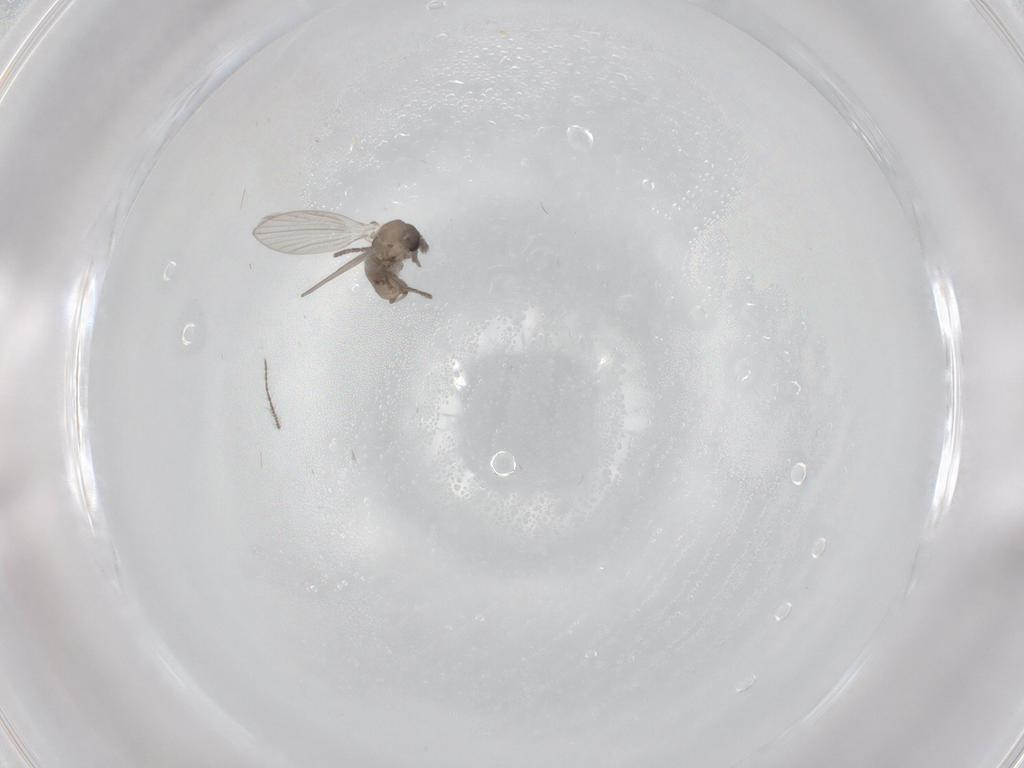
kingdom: Animalia
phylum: Arthropoda
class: Insecta
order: Diptera
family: Psychodidae
